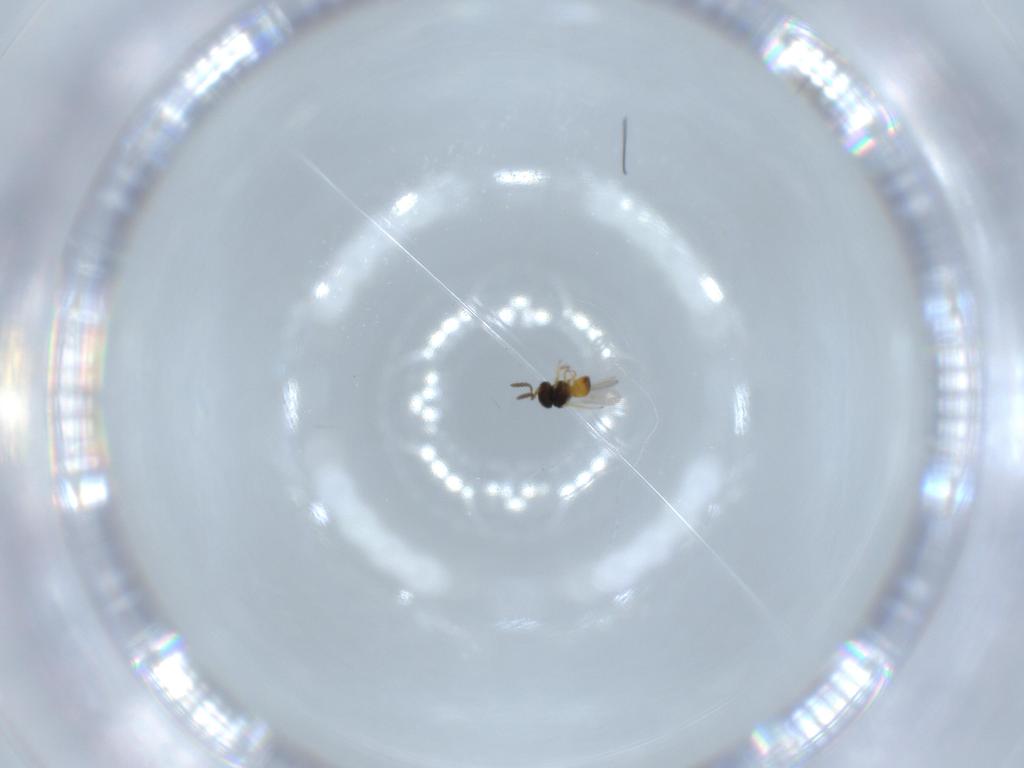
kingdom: Animalia
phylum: Arthropoda
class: Insecta
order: Hymenoptera
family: Scelionidae
